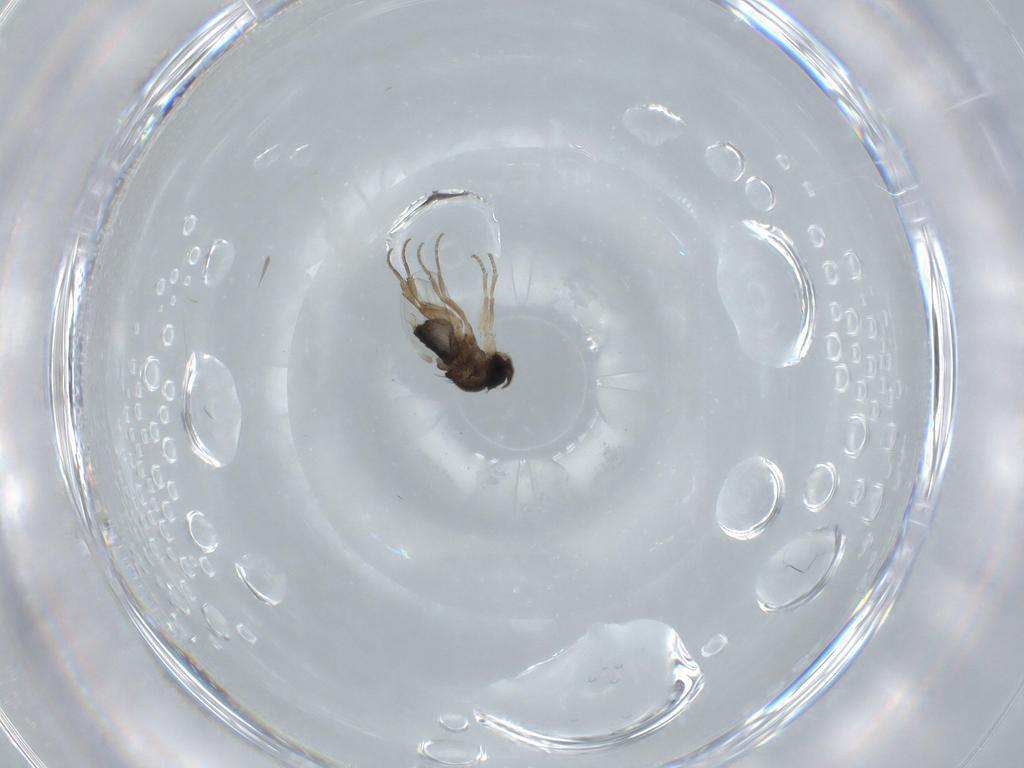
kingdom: Animalia
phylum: Arthropoda
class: Insecta
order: Diptera
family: Phoridae
